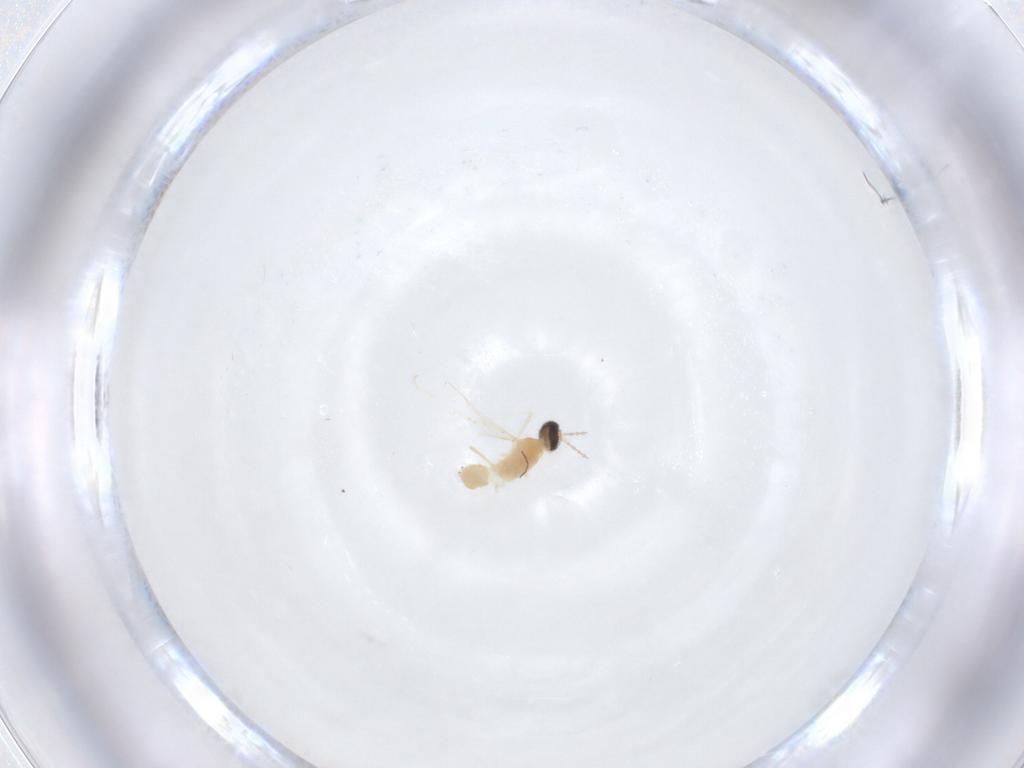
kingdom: Animalia
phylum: Arthropoda
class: Insecta
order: Diptera
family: Cecidomyiidae
